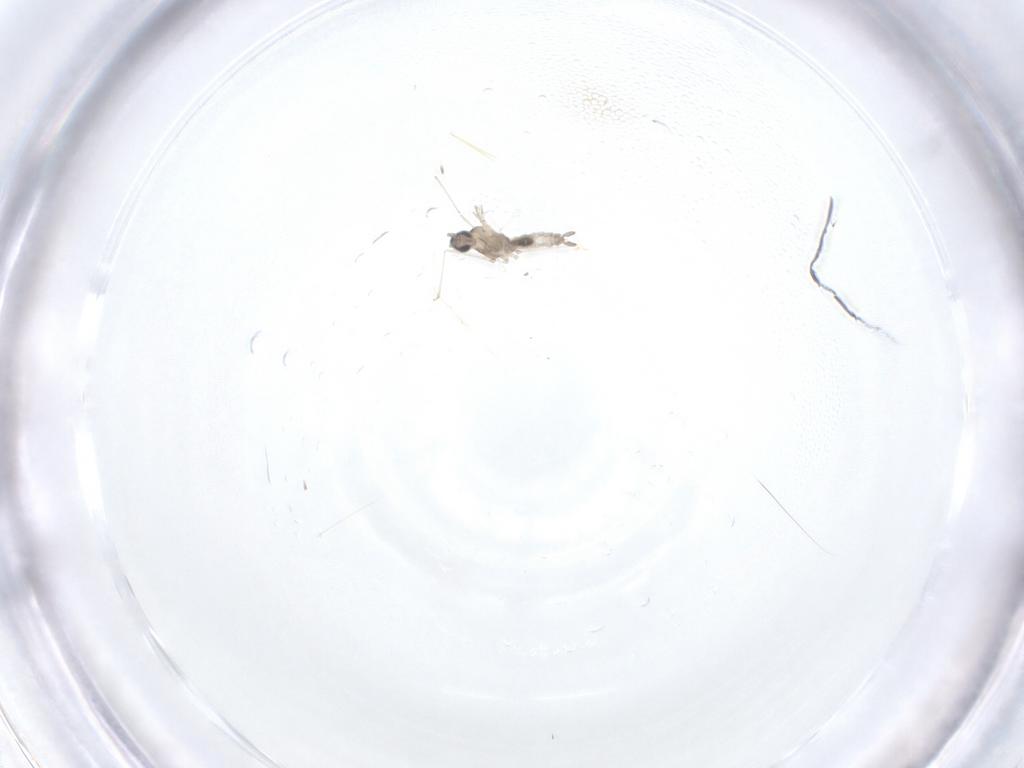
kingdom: Animalia
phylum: Arthropoda
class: Insecta
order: Diptera
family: Cecidomyiidae
